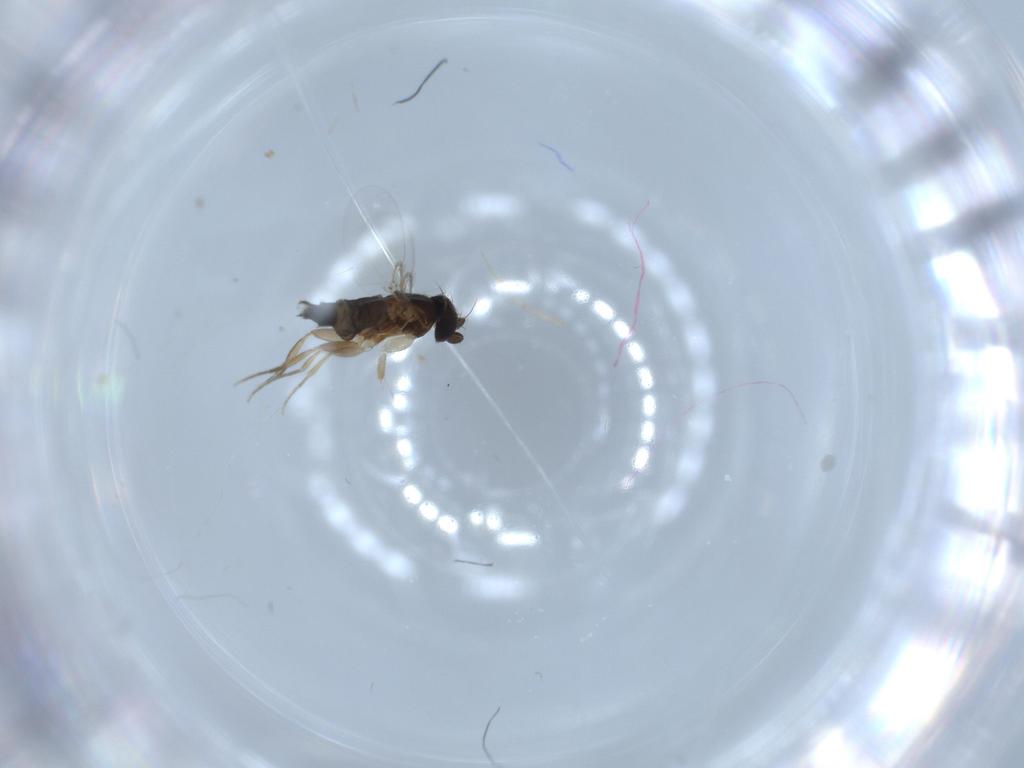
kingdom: Animalia
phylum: Arthropoda
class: Insecta
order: Diptera
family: Phoridae
